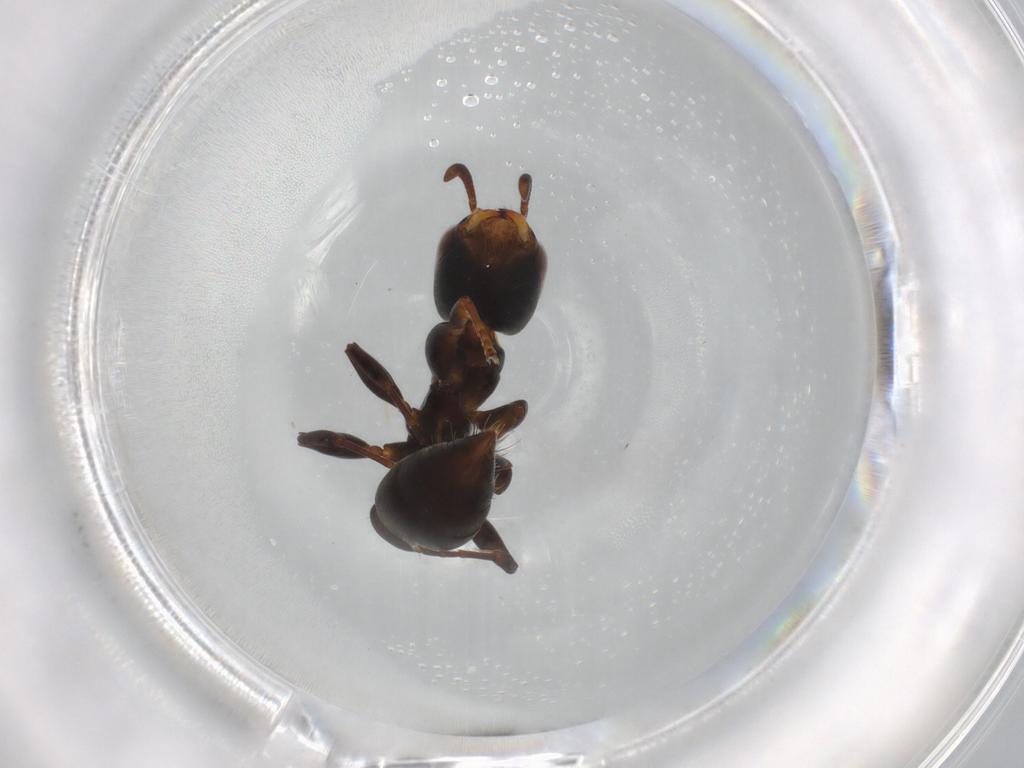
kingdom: Animalia
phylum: Arthropoda
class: Insecta
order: Hymenoptera
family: Formicidae
